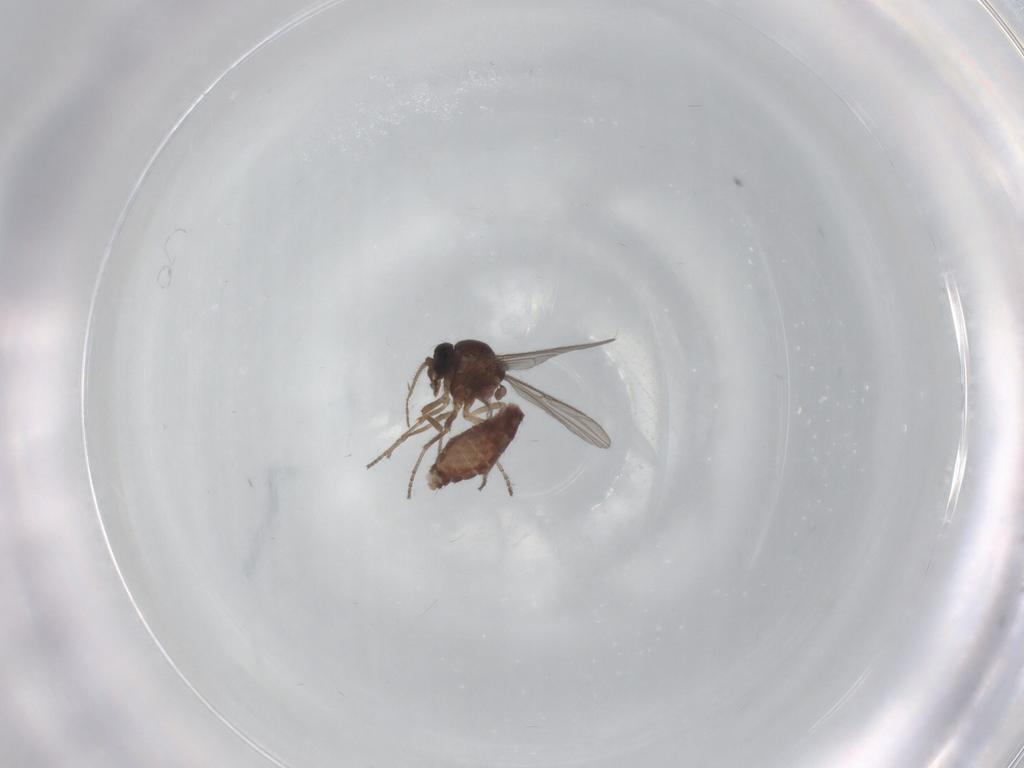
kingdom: Animalia
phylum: Arthropoda
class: Insecta
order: Diptera
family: Ceratopogonidae
